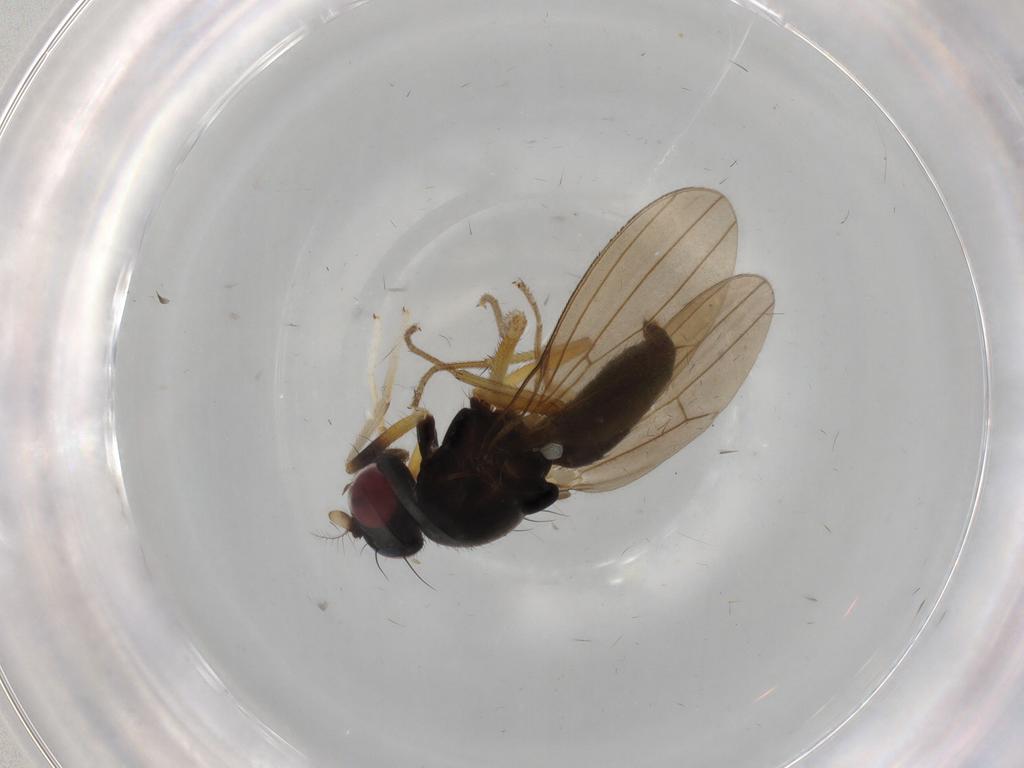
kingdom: Animalia
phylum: Arthropoda
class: Insecta
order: Diptera
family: Lauxaniidae
